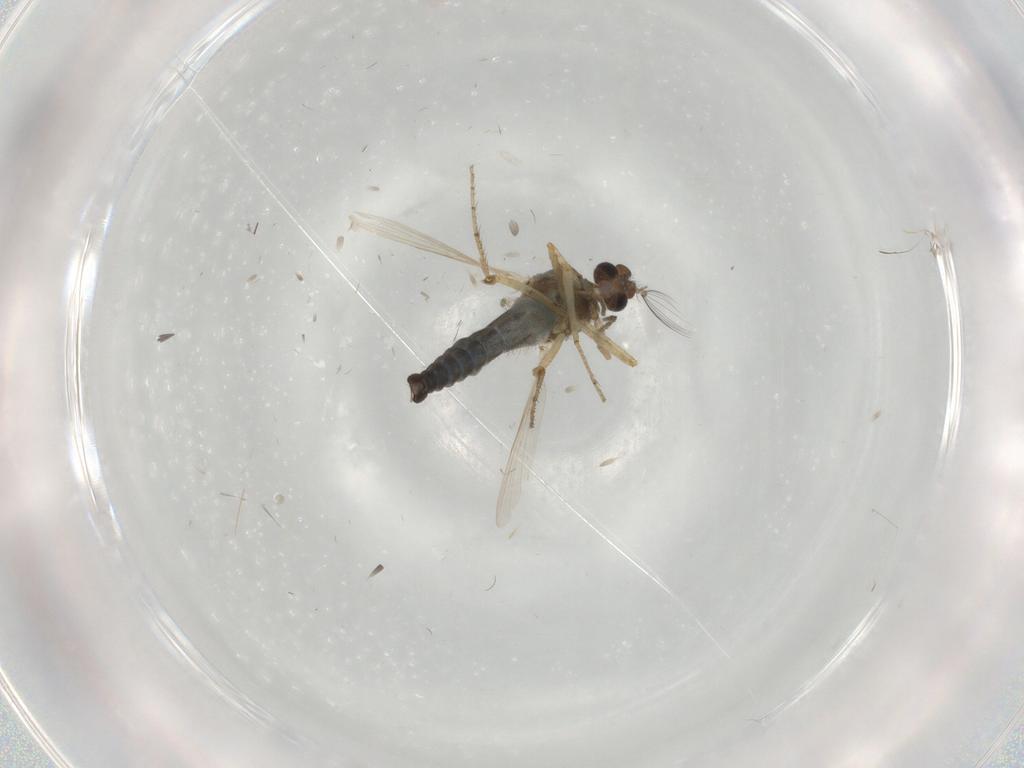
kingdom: Animalia
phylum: Arthropoda
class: Insecta
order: Diptera
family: Ceratopogonidae
